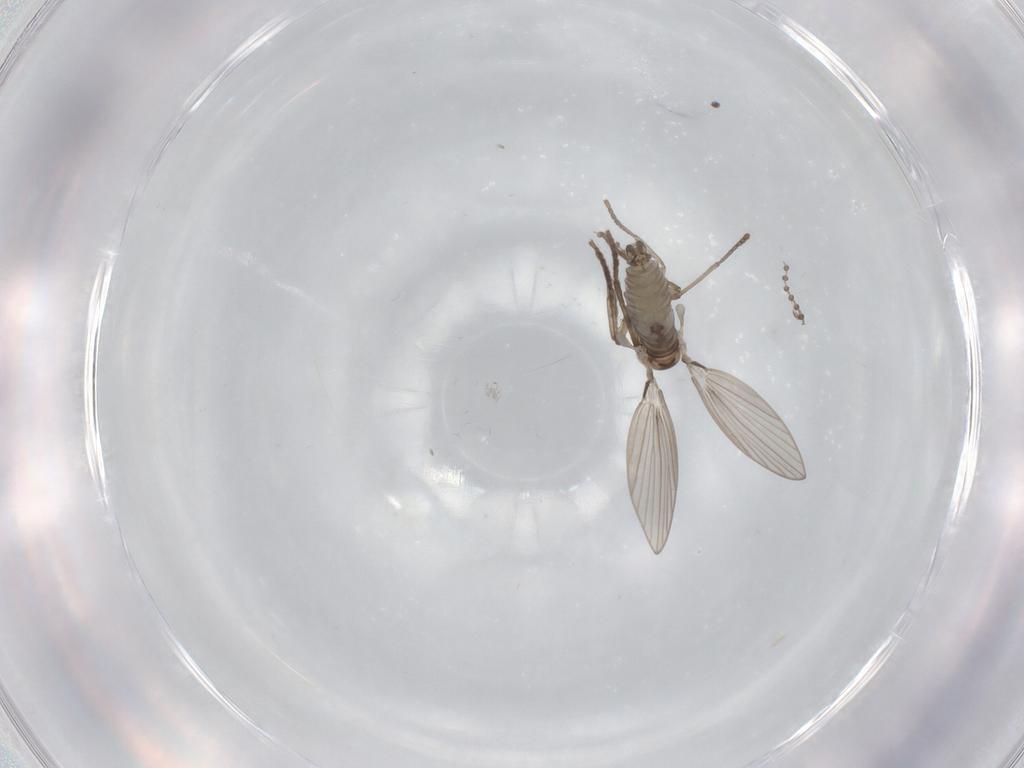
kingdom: Animalia
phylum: Arthropoda
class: Insecta
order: Diptera
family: Psychodidae
